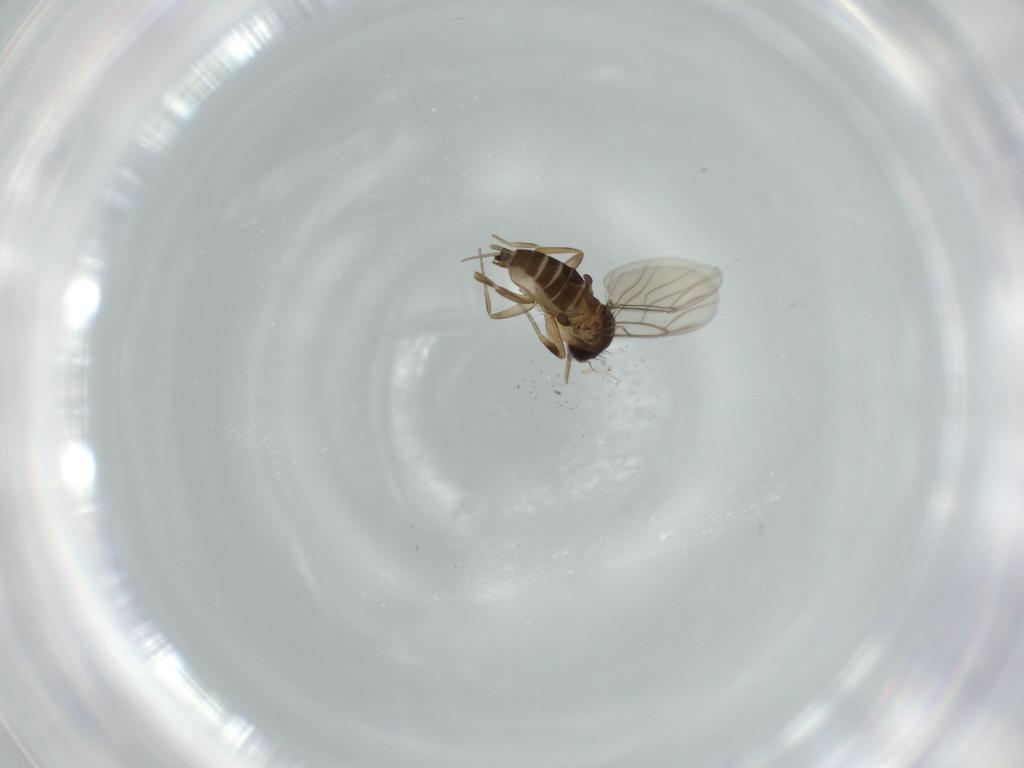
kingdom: Animalia
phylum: Arthropoda
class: Insecta
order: Diptera
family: Phoridae
